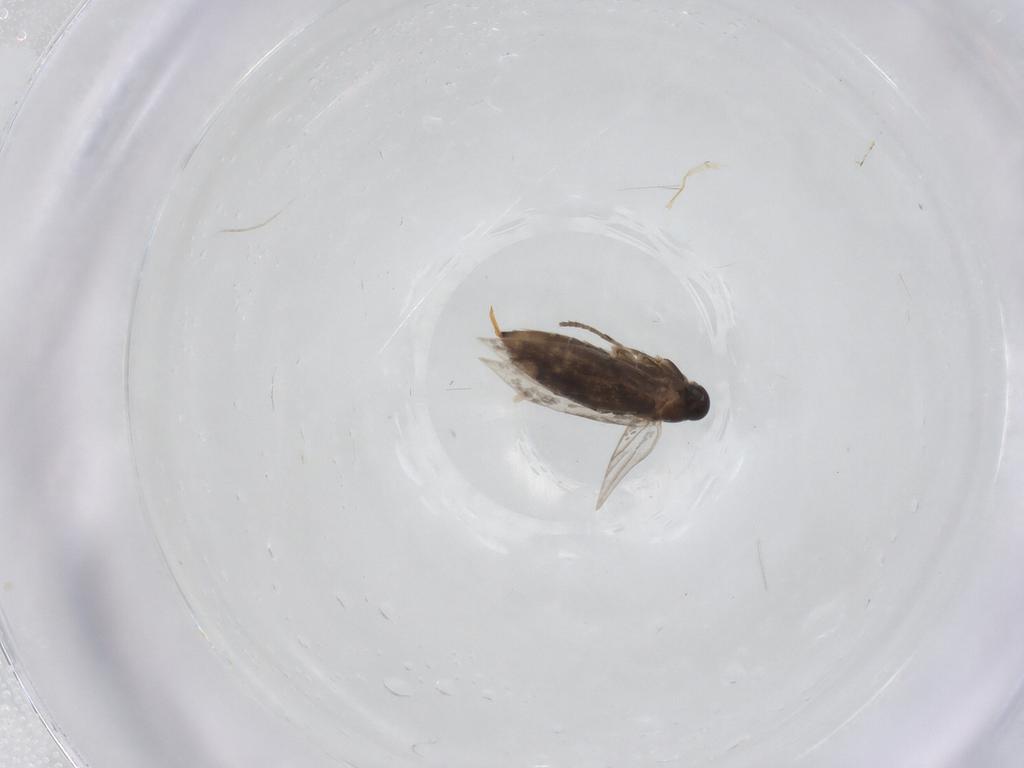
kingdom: Animalia
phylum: Arthropoda
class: Insecta
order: Lepidoptera
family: Heliozelidae
